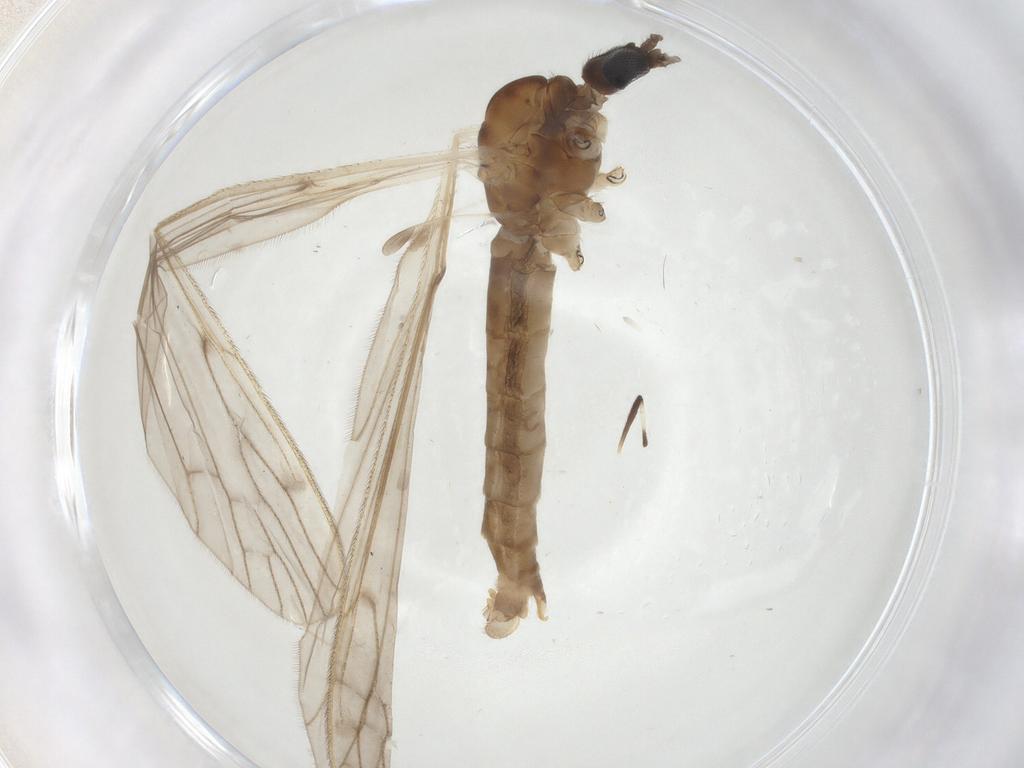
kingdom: Animalia
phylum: Arthropoda
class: Insecta
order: Diptera
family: Limoniidae
